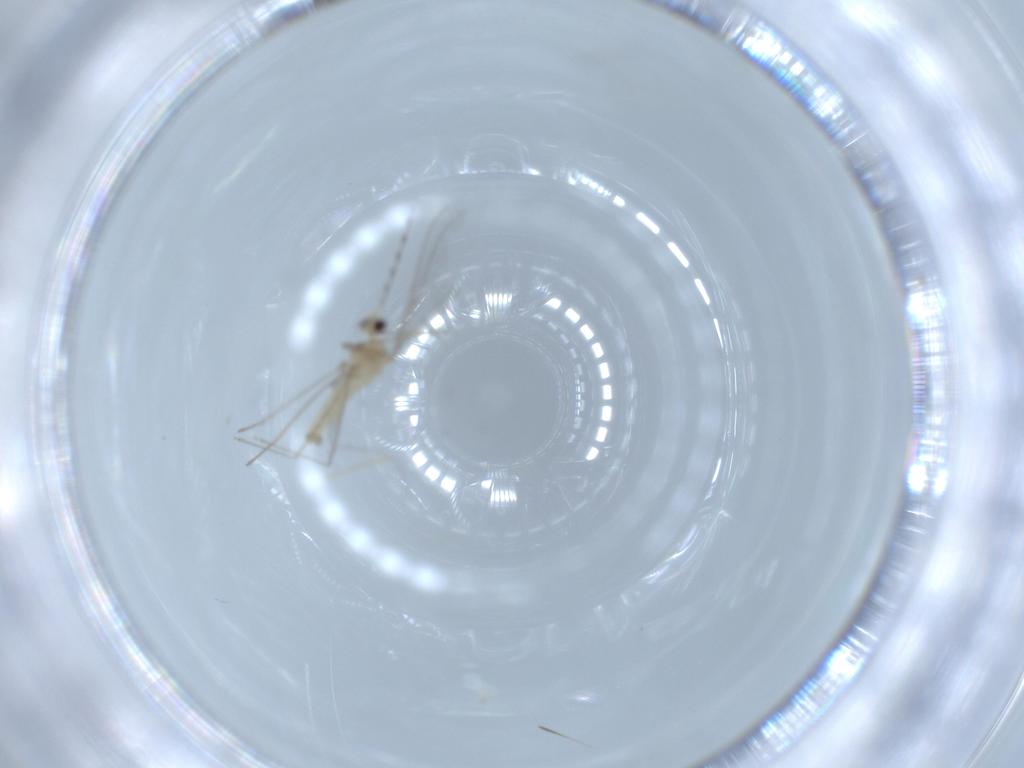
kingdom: Animalia
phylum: Arthropoda
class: Insecta
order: Diptera
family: Cecidomyiidae
